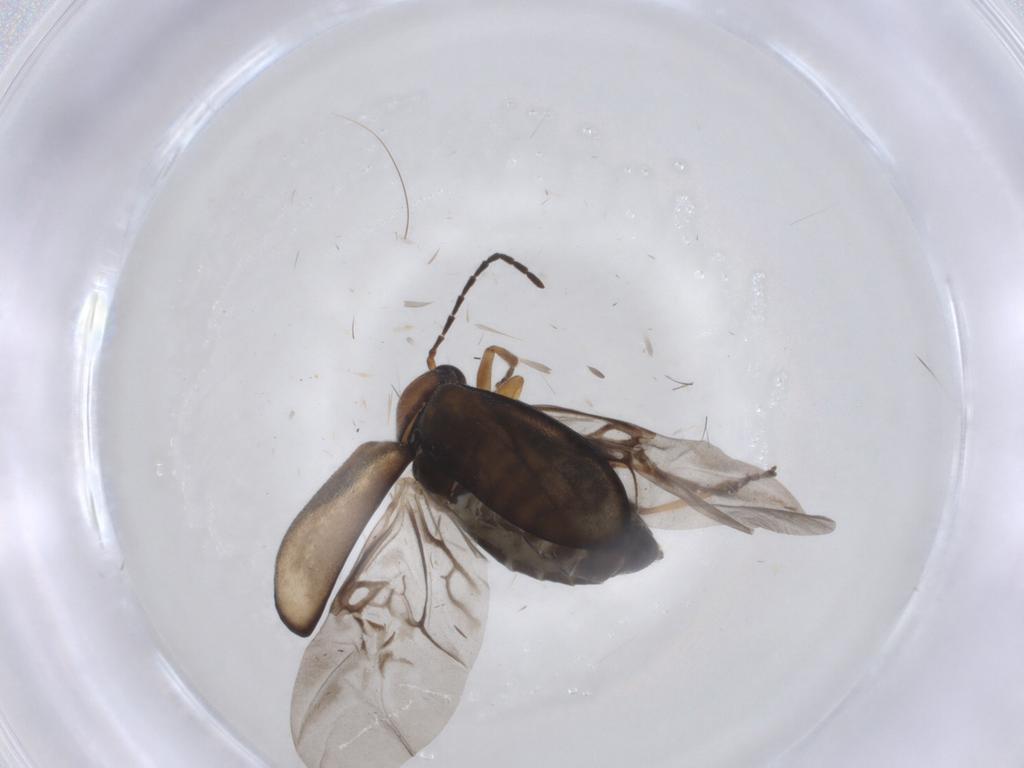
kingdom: Animalia
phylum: Arthropoda
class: Insecta
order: Coleoptera
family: Chrysomelidae
